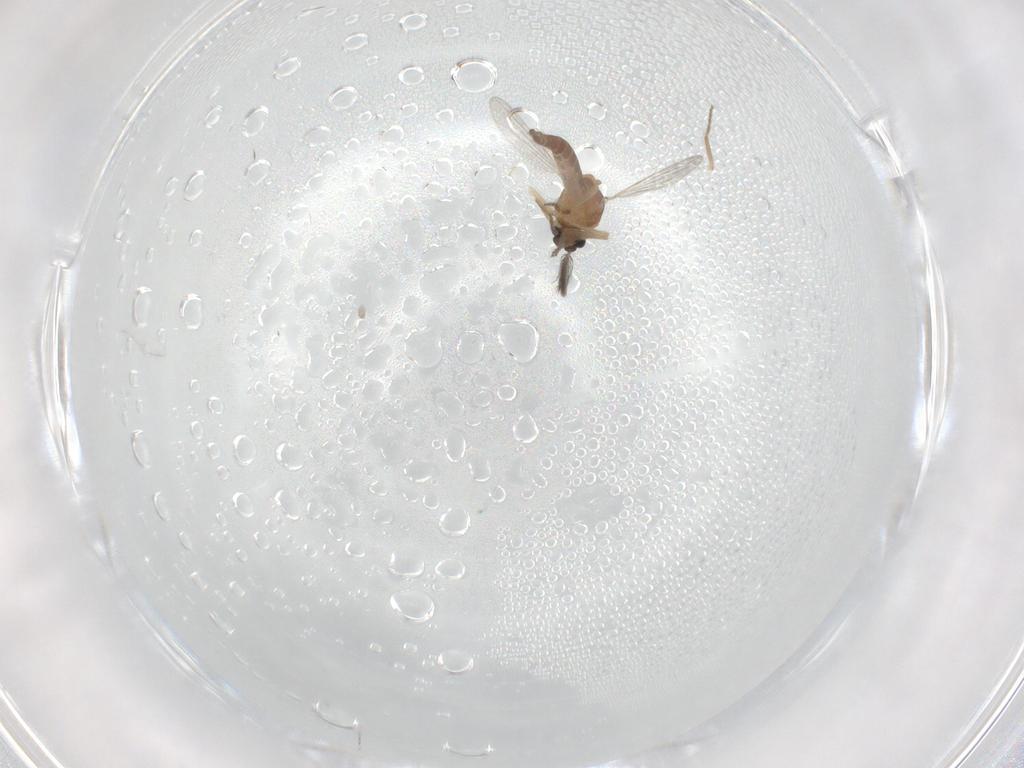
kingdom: Animalia
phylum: Arthropoda
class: Insecta
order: Diptera
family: Ceratopogonidae
